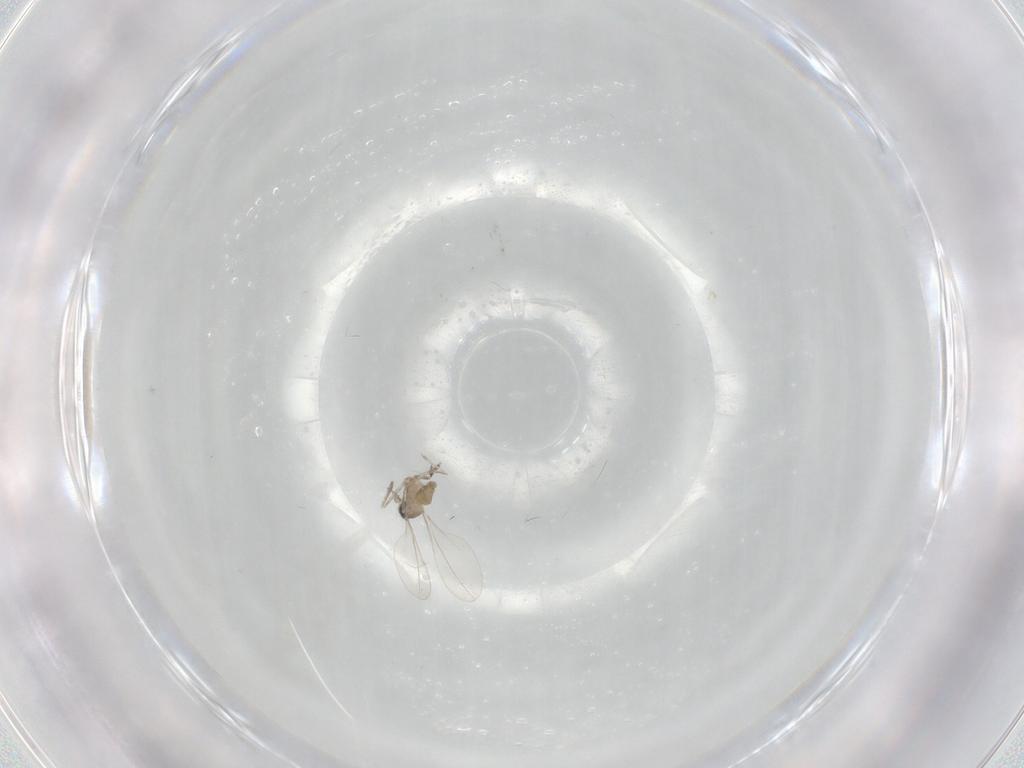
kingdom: Animalia
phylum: Arthropoda
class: Insecta
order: Diptera
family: Cecidomyiidae
